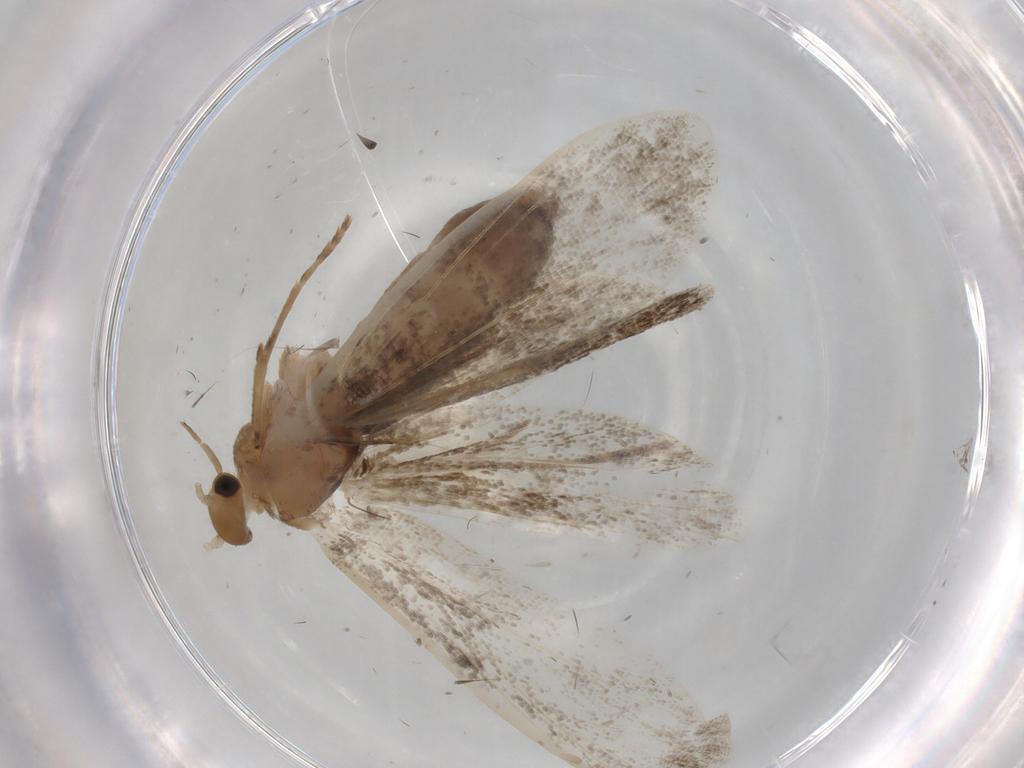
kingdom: Animalia
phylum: Arthropoda
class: Insecta
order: Lepidoptera
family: Dryadaulidae
